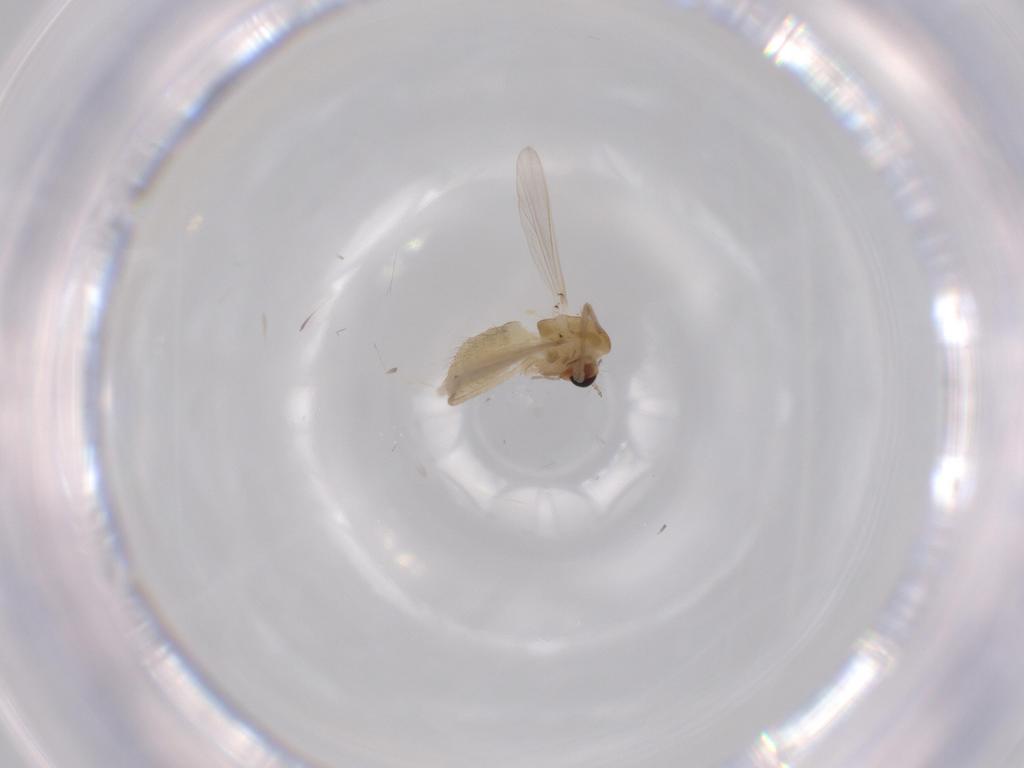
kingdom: Animalia
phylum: Arthropoda
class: Insecta
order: Diptera
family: Chironomidae
